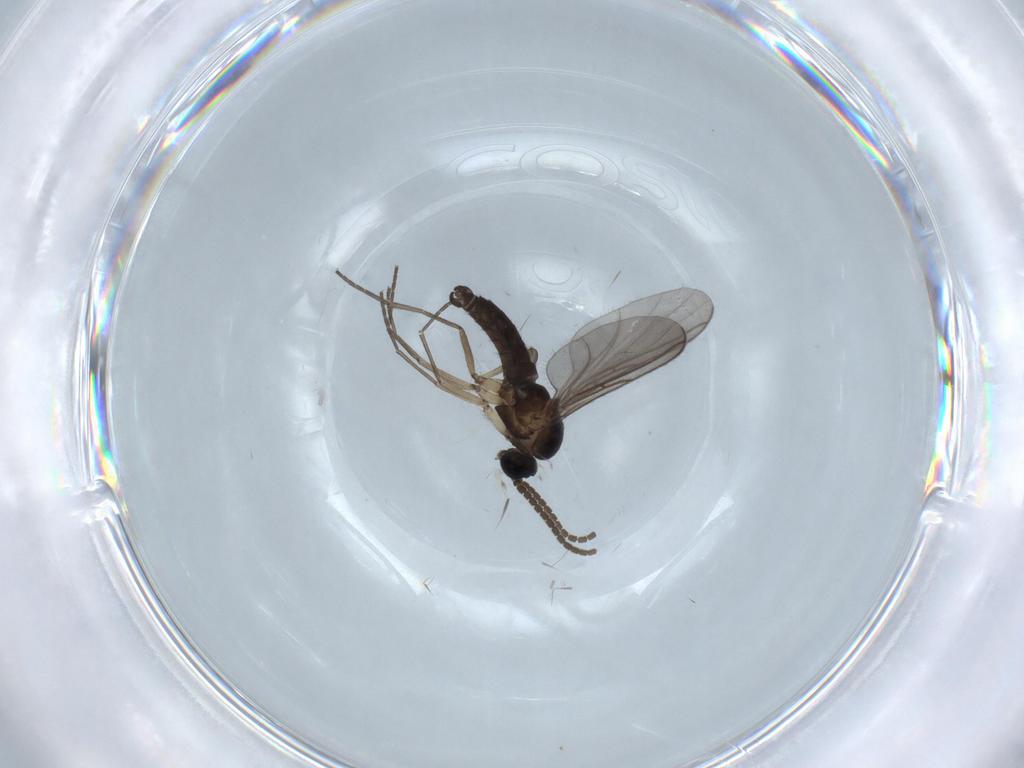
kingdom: Animalia
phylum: Arthropoda
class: Insecta
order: Diptera
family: Sciaridae
